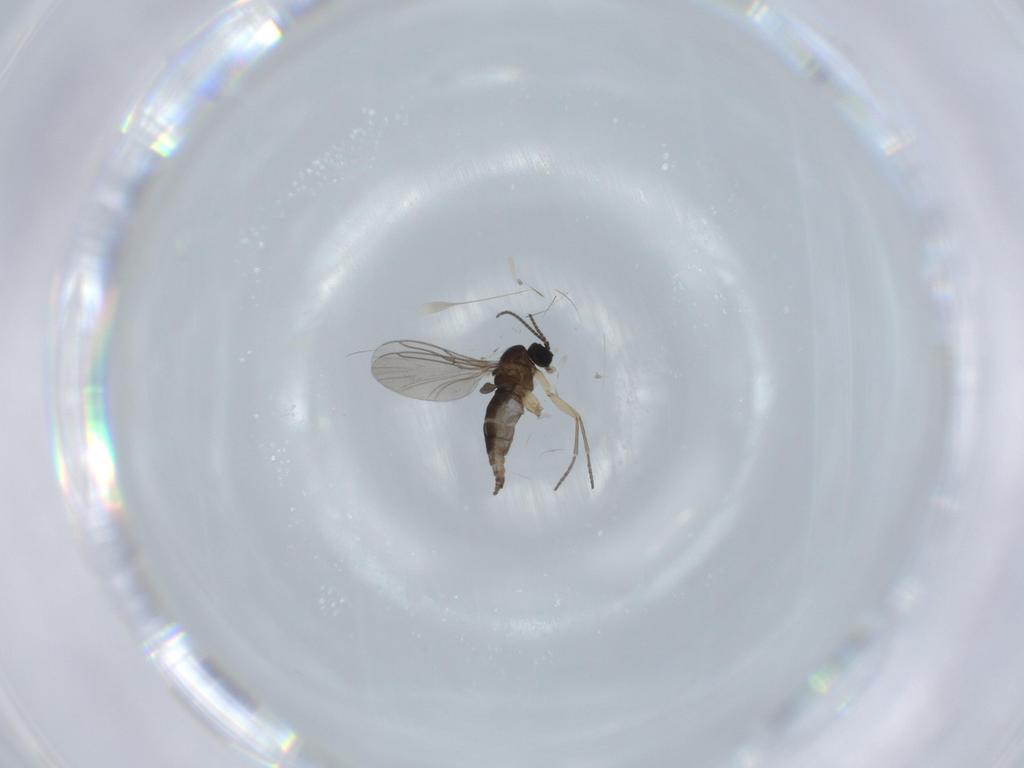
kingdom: Animalia
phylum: Arthropoda
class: Insecta
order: Diptera
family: Sciaridae
